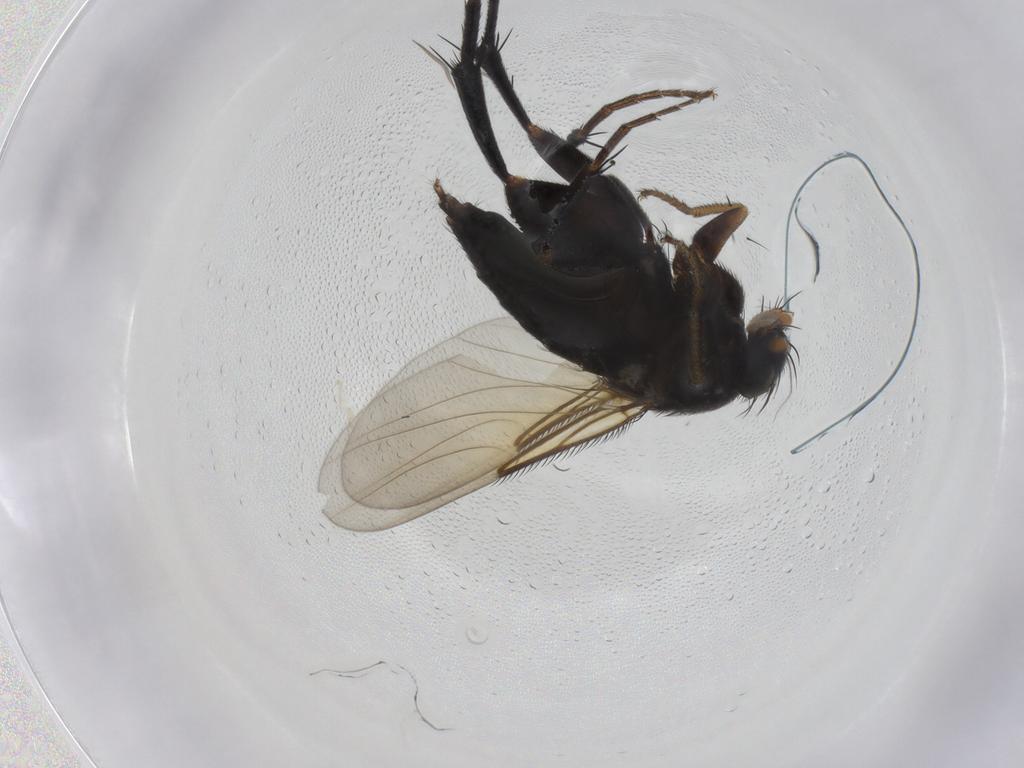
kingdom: Animalia
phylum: Arthropoda
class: Insecta
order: Diptera
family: Phoridae
